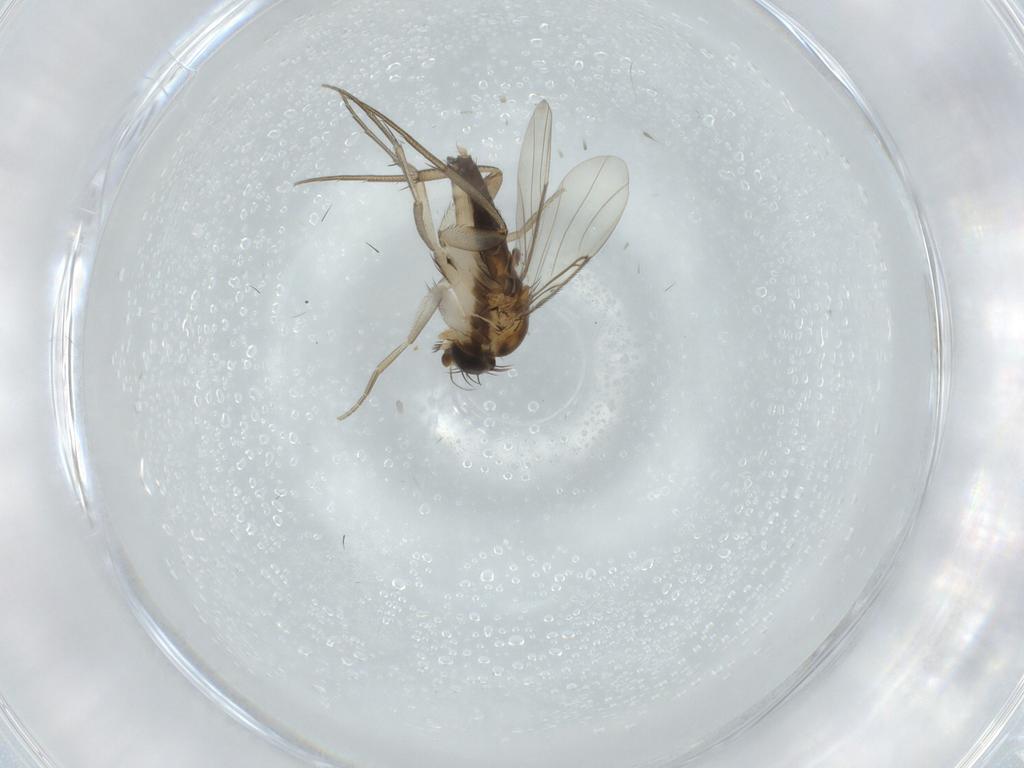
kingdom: Animalia
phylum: Arthropoda
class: Insecta
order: Diptera
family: Phoridae
